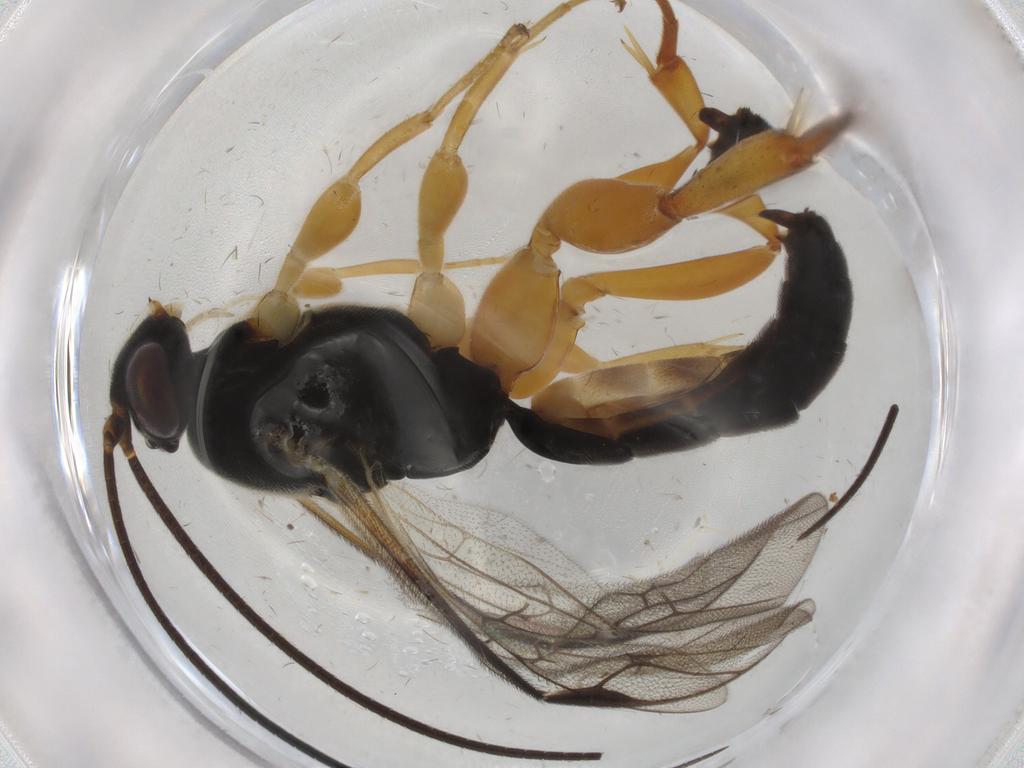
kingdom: Animalia
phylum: Arthropoda
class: Insecta
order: Hymenoptera
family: Ichneumonidae
